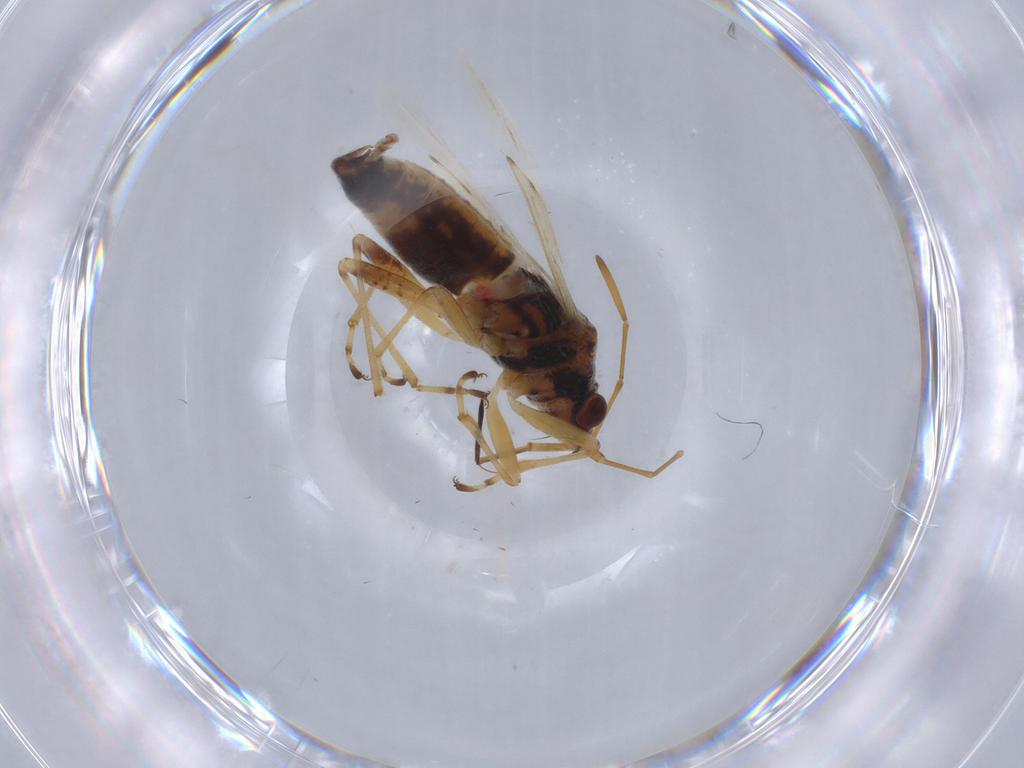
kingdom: Animalia
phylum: Arthropoda
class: Insecta
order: Hemiptera
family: Lygaeidae
